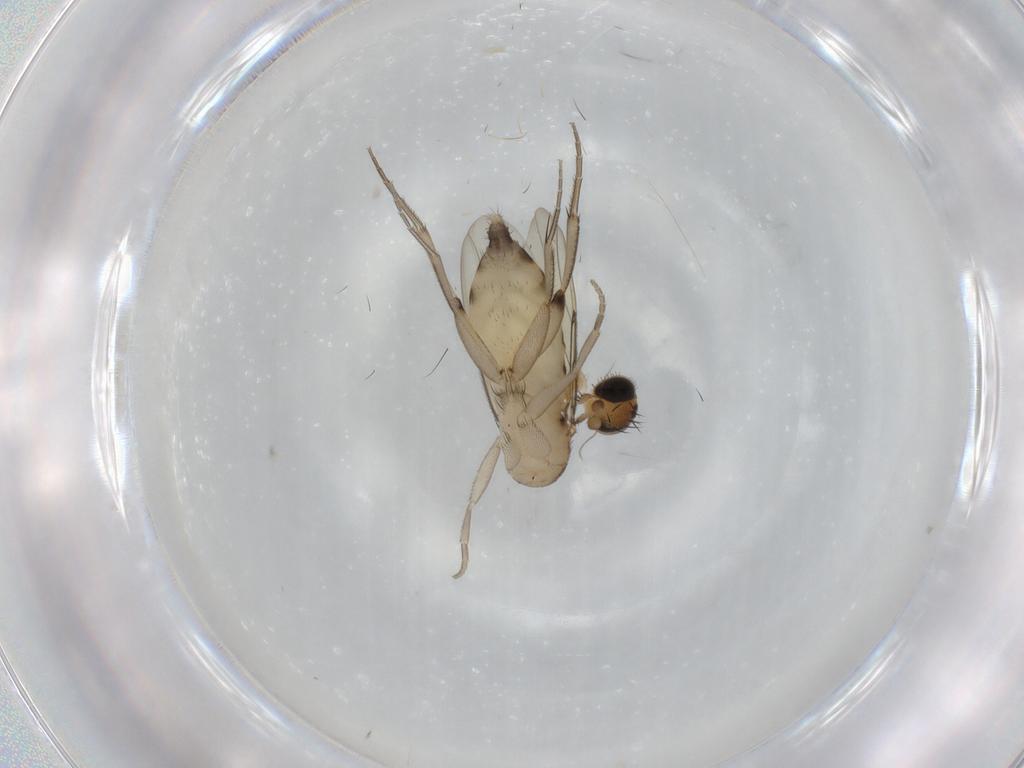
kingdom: Animalia
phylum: Arthropoda
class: Insecta
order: Diptera
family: Phoridae
